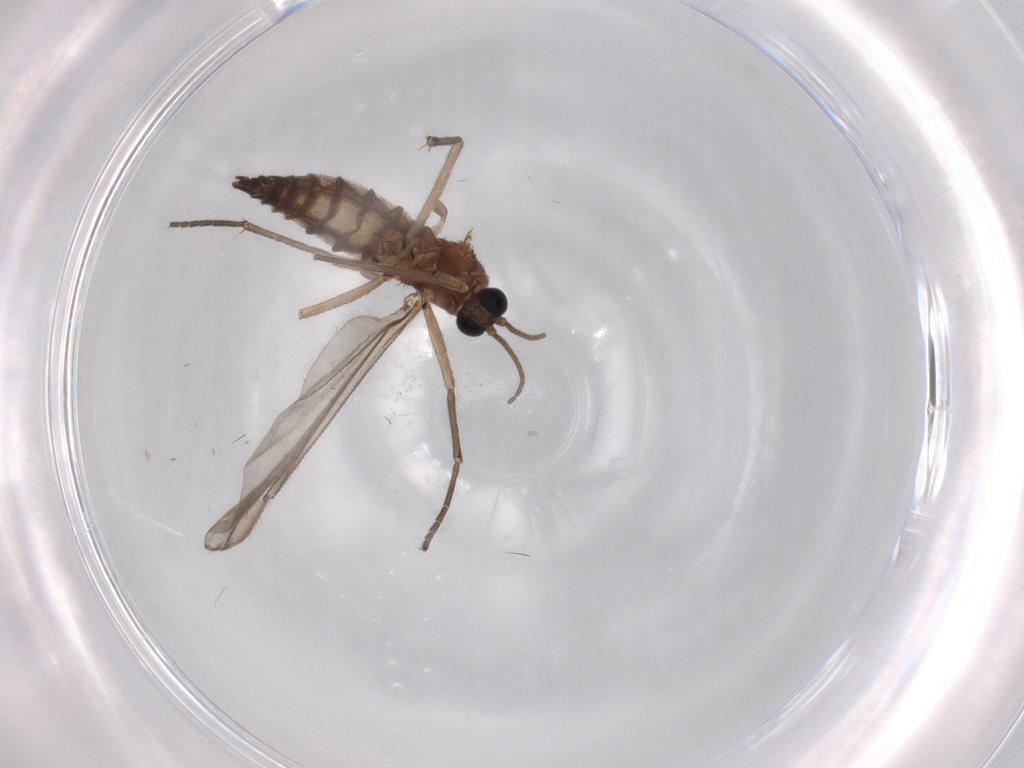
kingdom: Animalia
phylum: Arthropoda
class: Insecta
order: Diptera
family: Sciaridae
